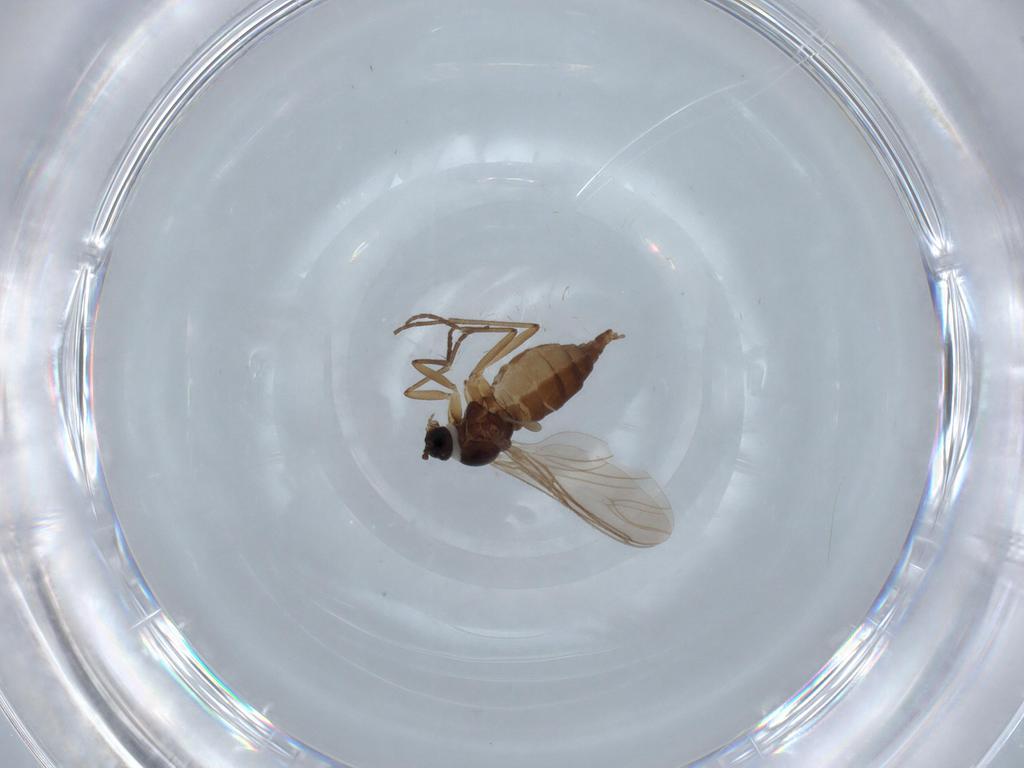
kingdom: Animalia
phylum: Arthropoda
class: Insecta
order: Diptera
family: Sciaridae
